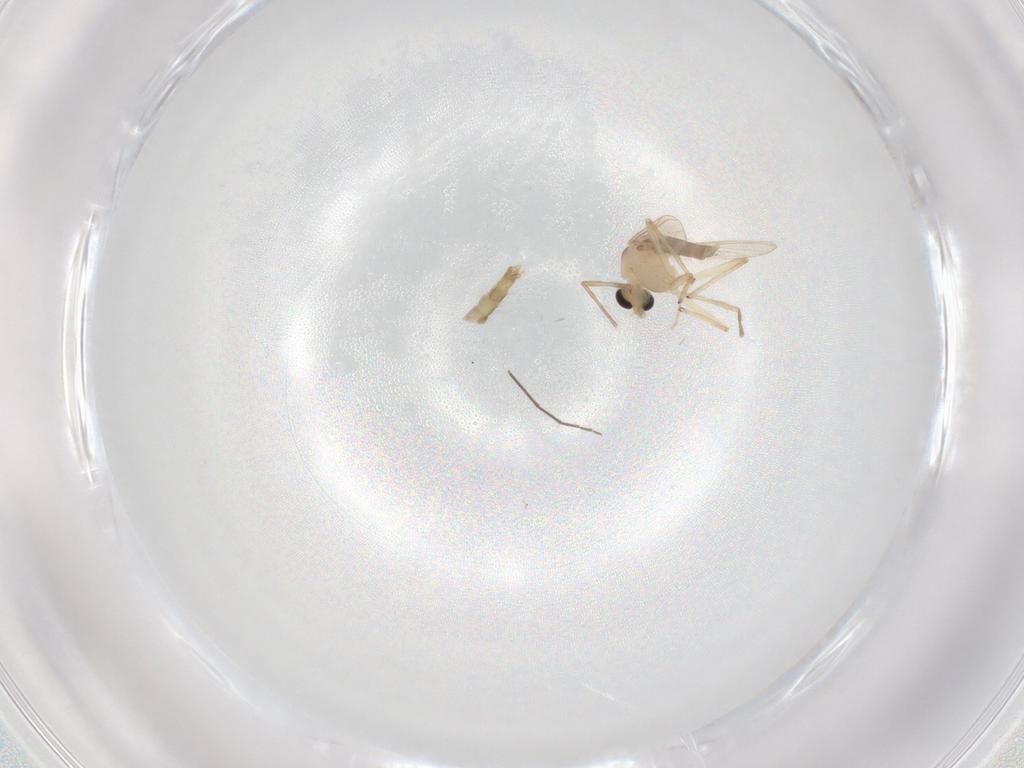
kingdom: Animalia
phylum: Arthropoda
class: Insecta
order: Diptera
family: Chironomidae
